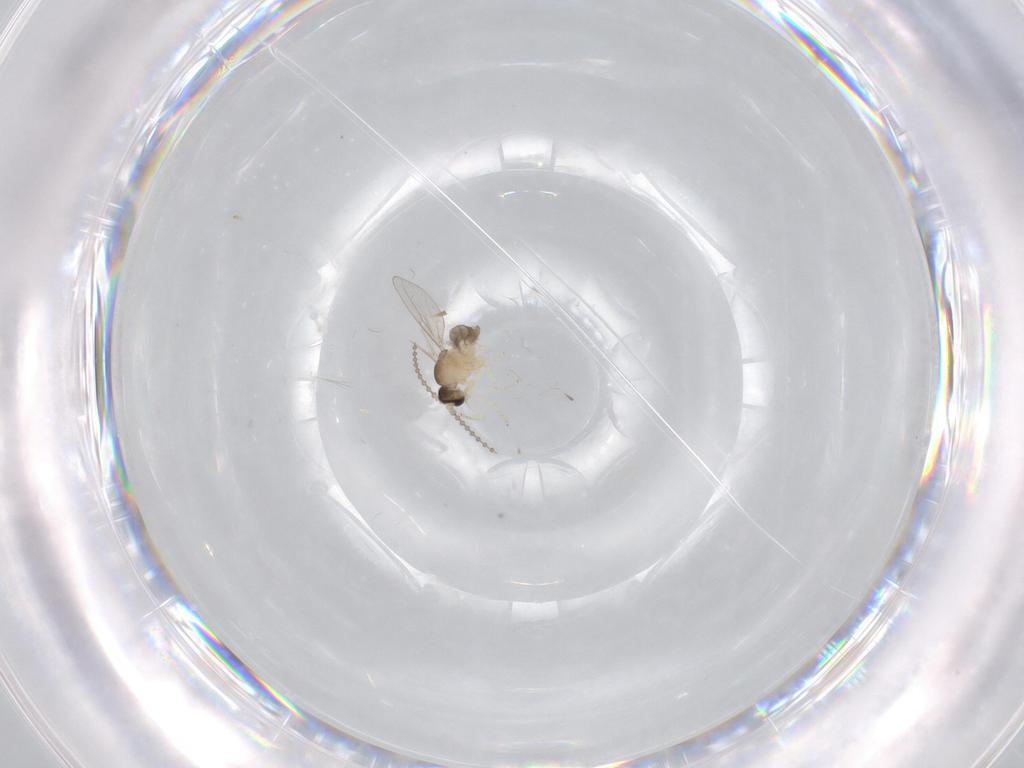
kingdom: Animalia
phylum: Arthropoda
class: Insecta
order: Diptera
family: Cecidomyiidae
